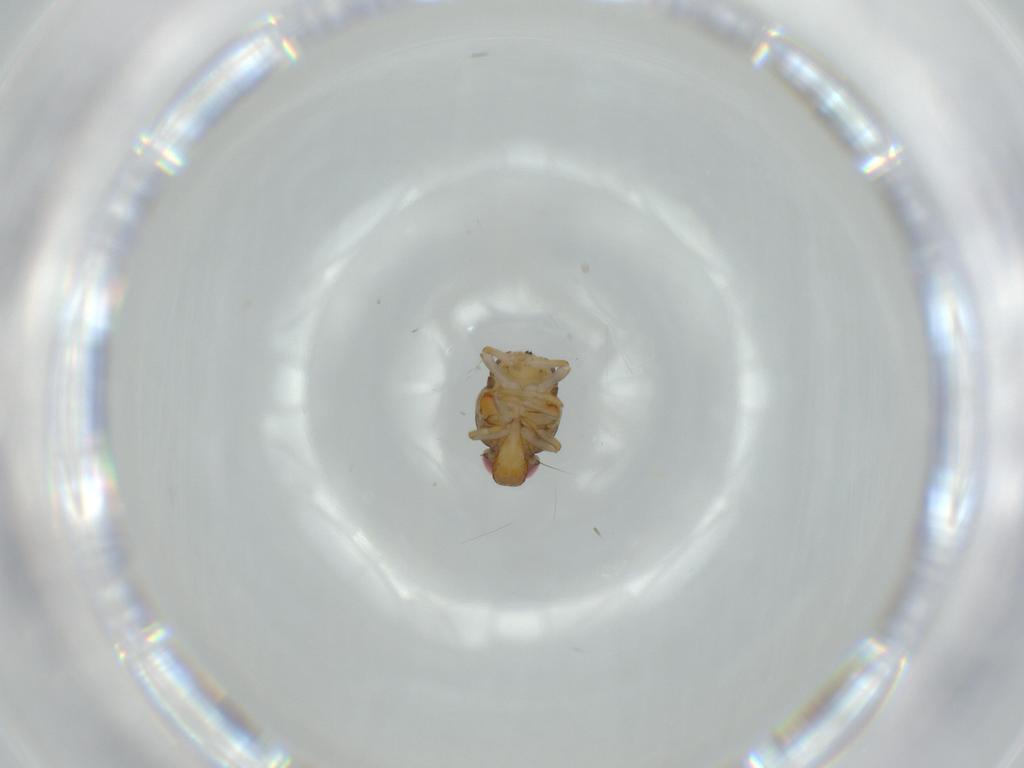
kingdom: Animalia
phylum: Arthropoda
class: Insecta
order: Hemiptera
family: Issidae
